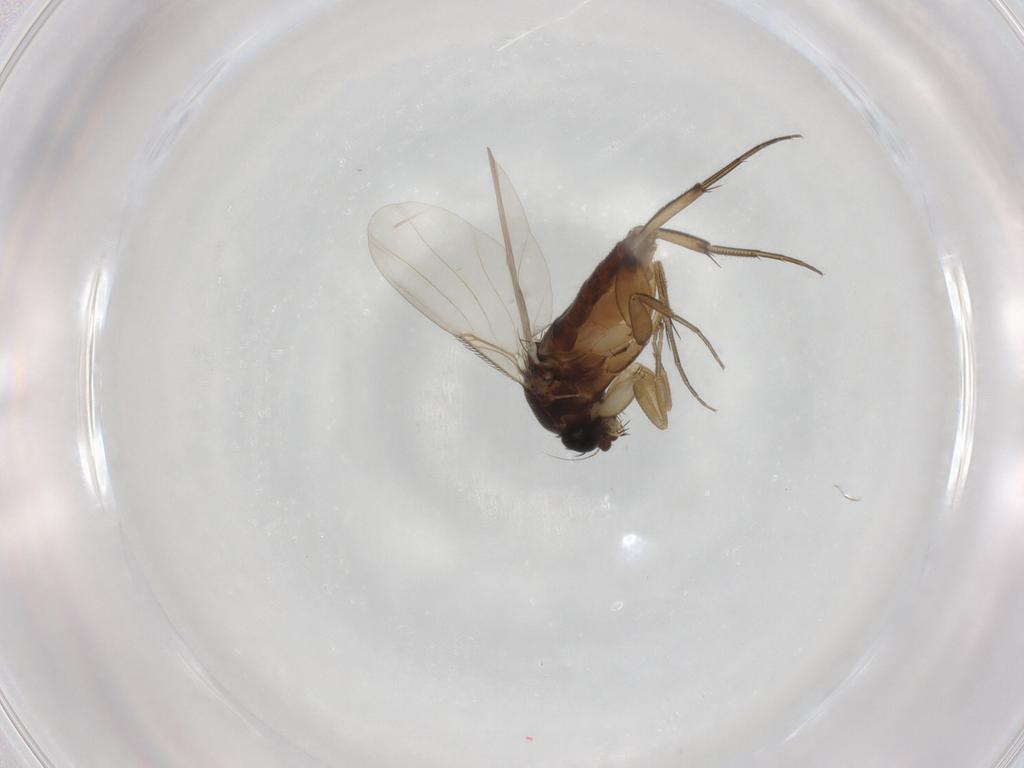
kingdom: Animalia
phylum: Arthropoda
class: Insecta
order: Diptera
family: Phoridae
